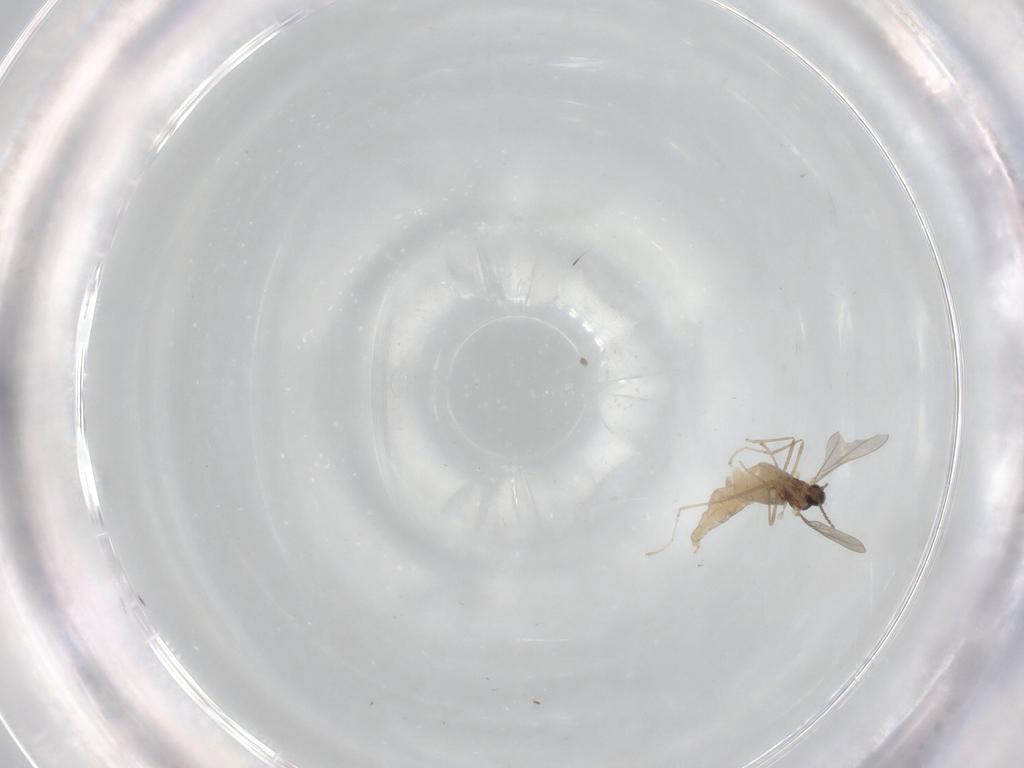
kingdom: Animalia
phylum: Arthropoda
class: Insecta
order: Diptera
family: Cecidomyiidae
